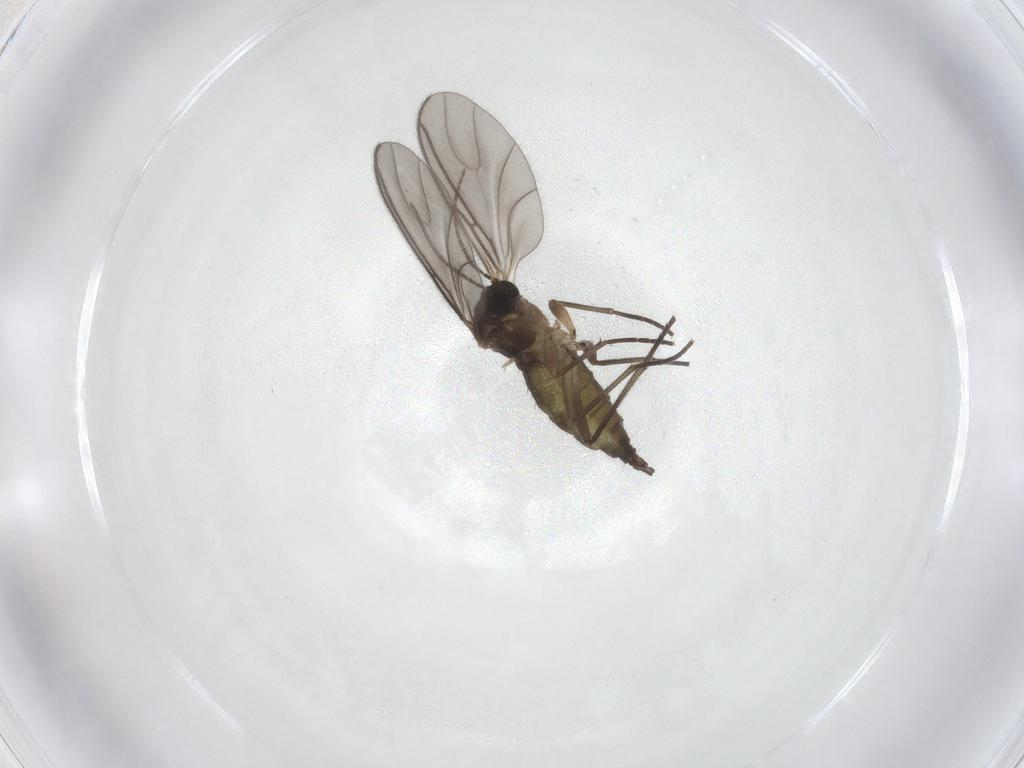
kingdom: Animalia
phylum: Arthropoda
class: Insecta
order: Diptera
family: Sciaridae
